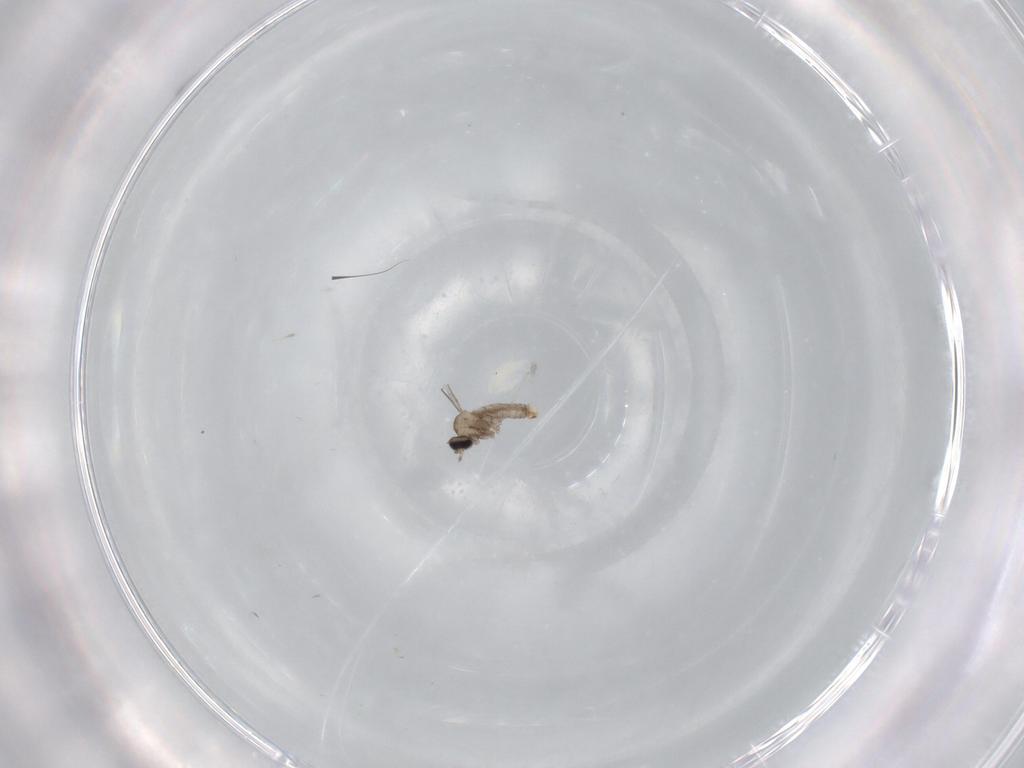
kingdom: Animalia
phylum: Arthropoda
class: Insecta
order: Diptera
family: Cecidomyiidae
